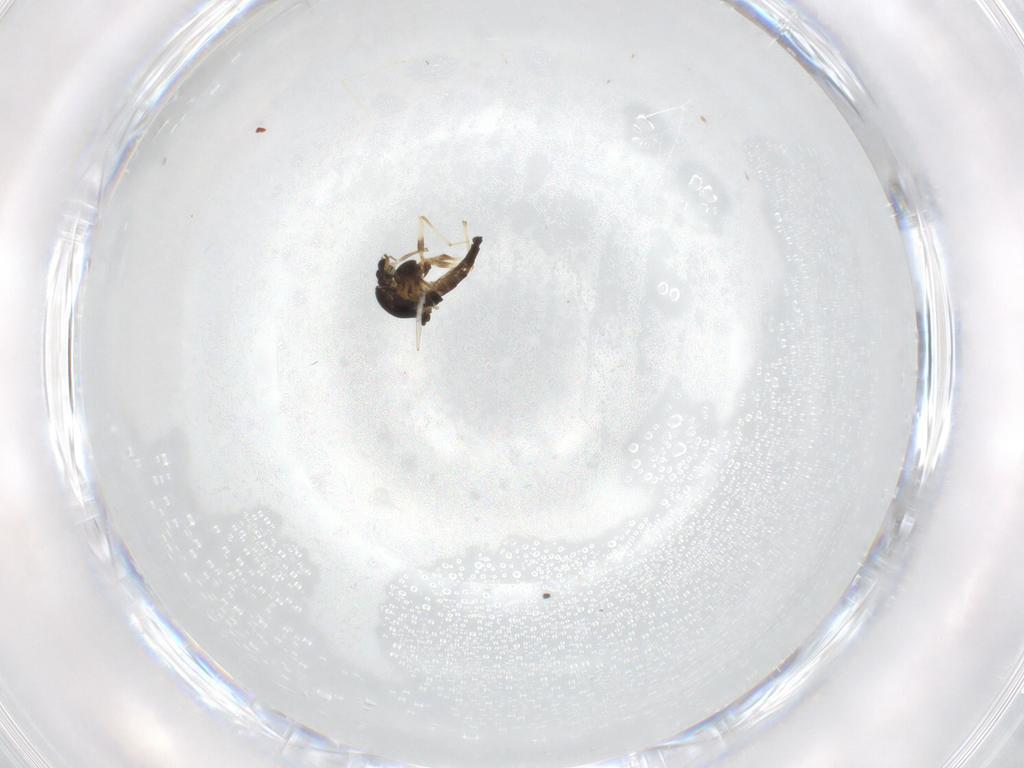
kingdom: Animalia
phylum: Arthropoda
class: Insecta
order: Diptera
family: Chironomidae
